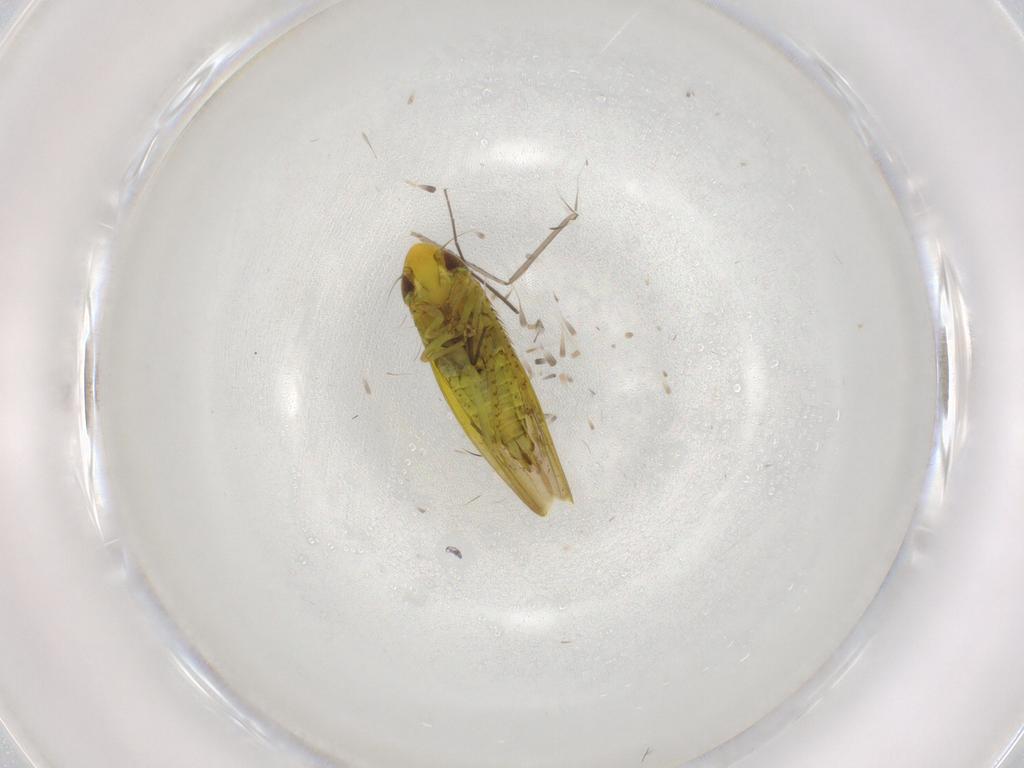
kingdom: Animalia
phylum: Arthropoda
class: Insecta
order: Hemiptera
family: Cicadellidae
